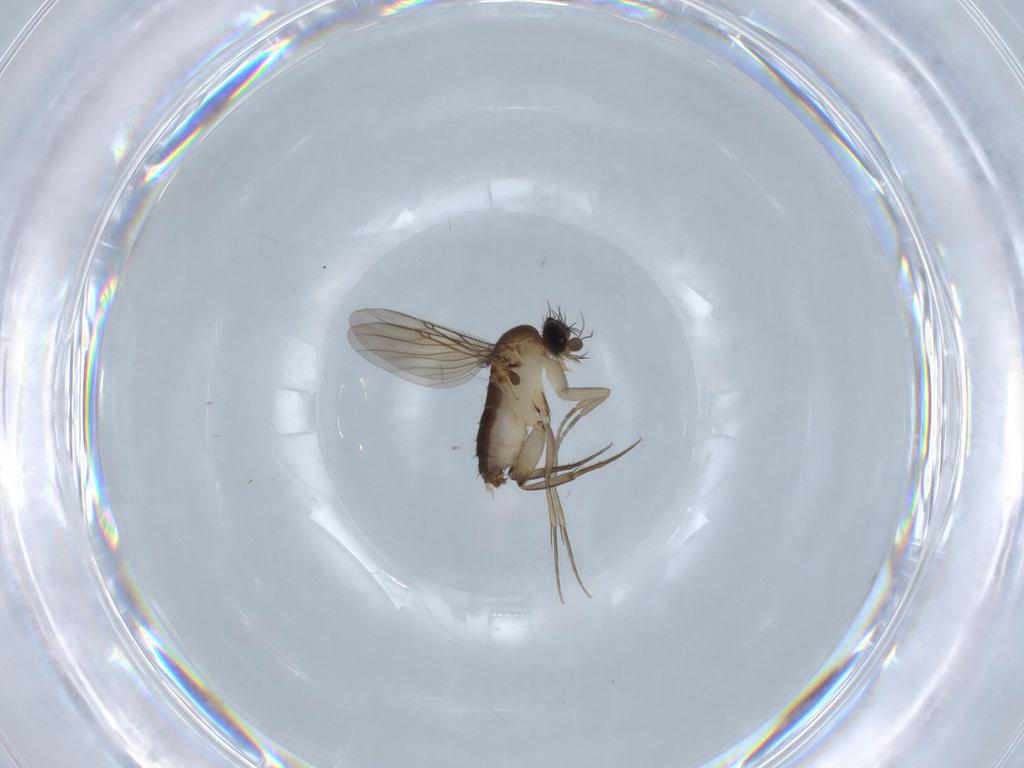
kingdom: Animalia
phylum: Arthropoda
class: Insecta
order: Diptera
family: Phoridae
